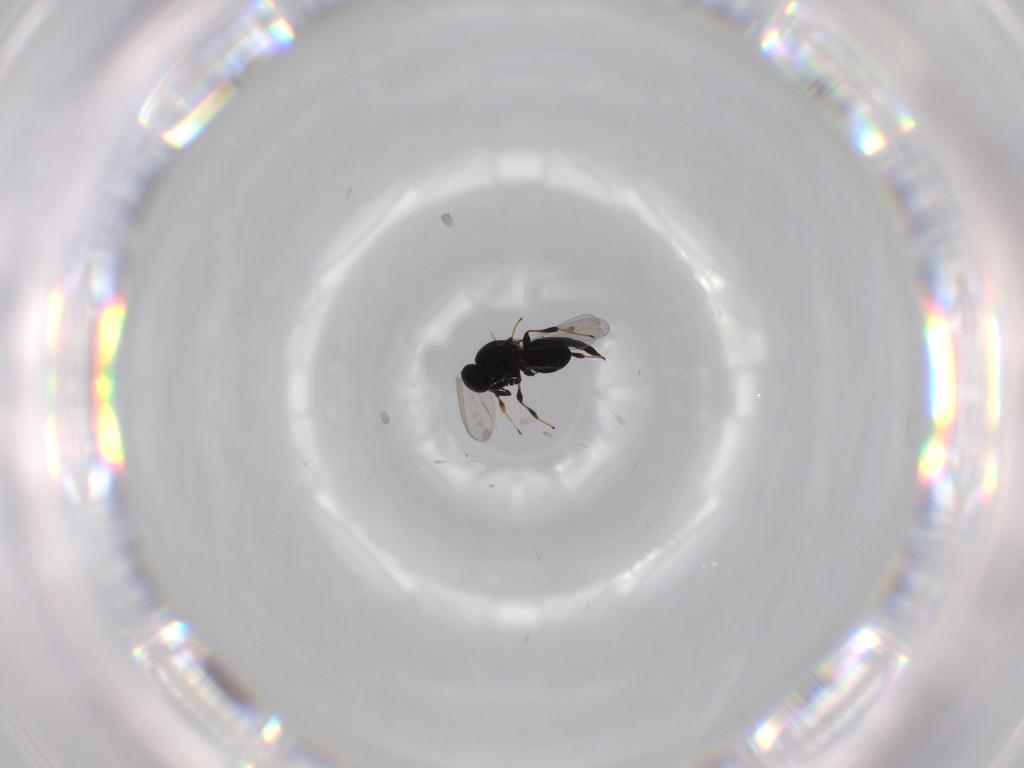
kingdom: Animalia
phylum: Arthropoda
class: Insecta
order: Hymenoptera
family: Platygastridae
